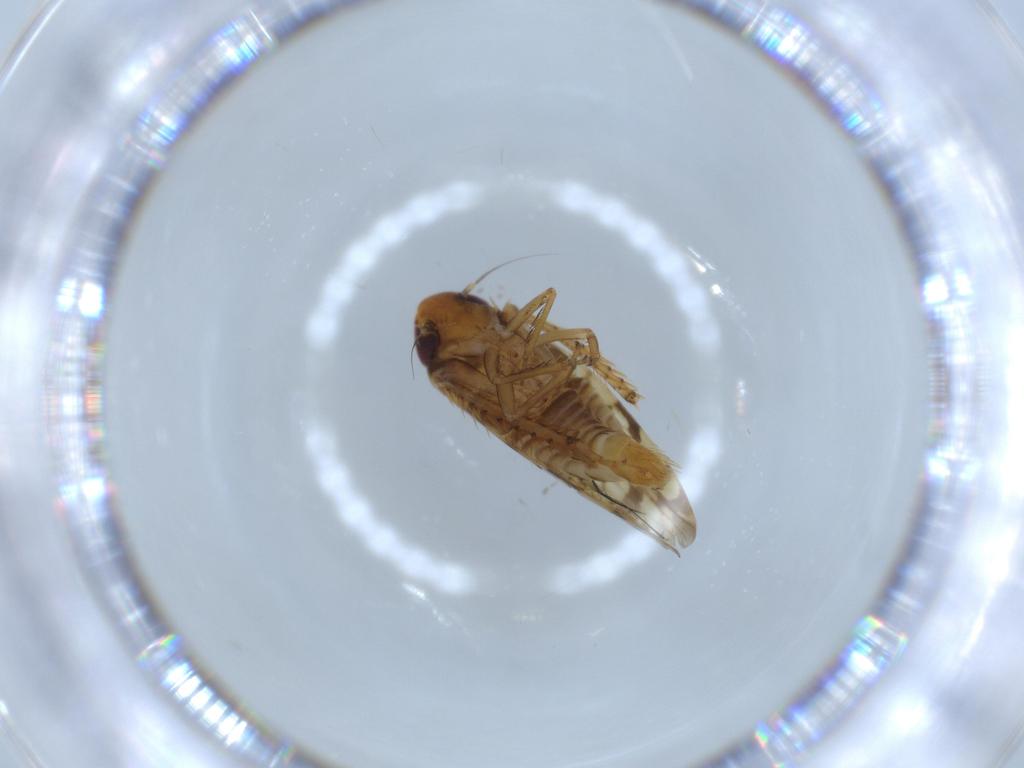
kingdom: Animalia
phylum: Arthropoda
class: Insecta
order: Hemiptera
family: Cicadellidae
